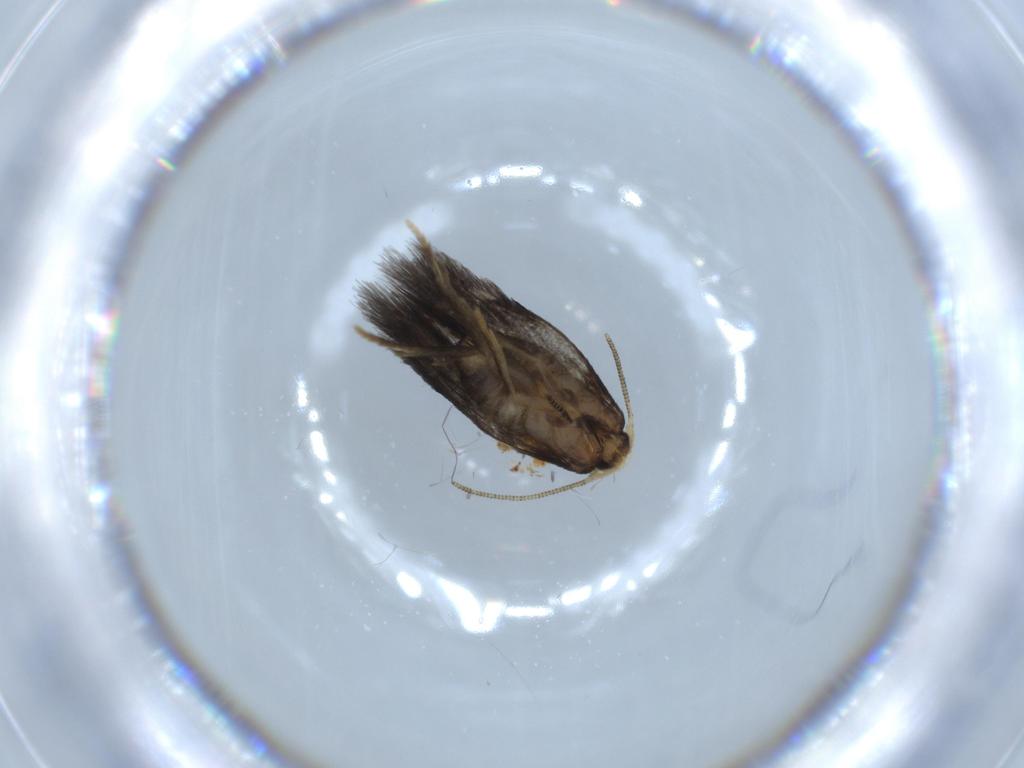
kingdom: Animalia
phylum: Arthropoda
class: Insecta
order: Lepidoptera
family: Nepticulidae
